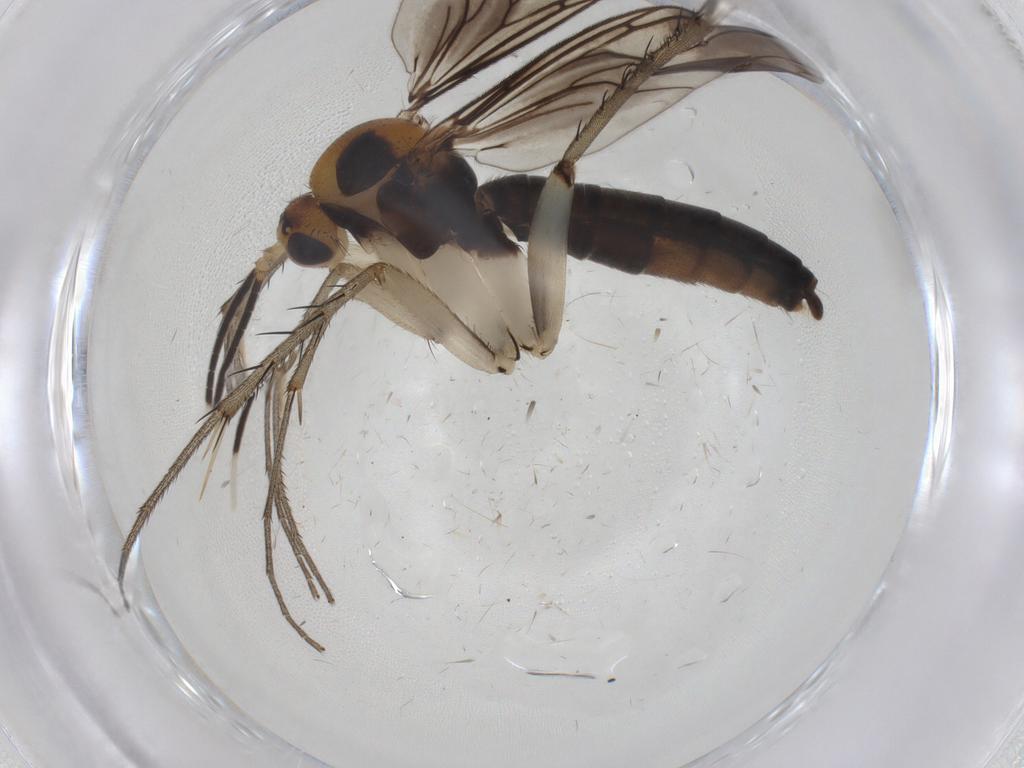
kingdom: Animalia
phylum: Arthropoda
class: Insecta
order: Diptera
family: Mycetophilidae
